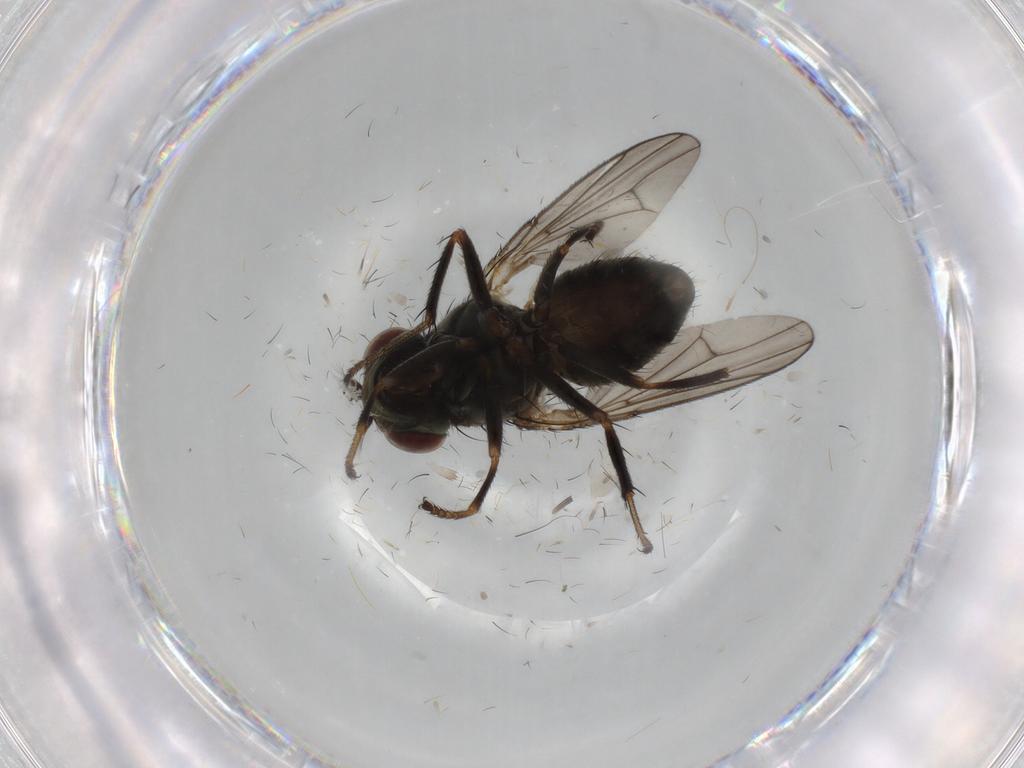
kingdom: Animalia
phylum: Arthropoda
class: Insecta
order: Diptera
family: Ephydridae
